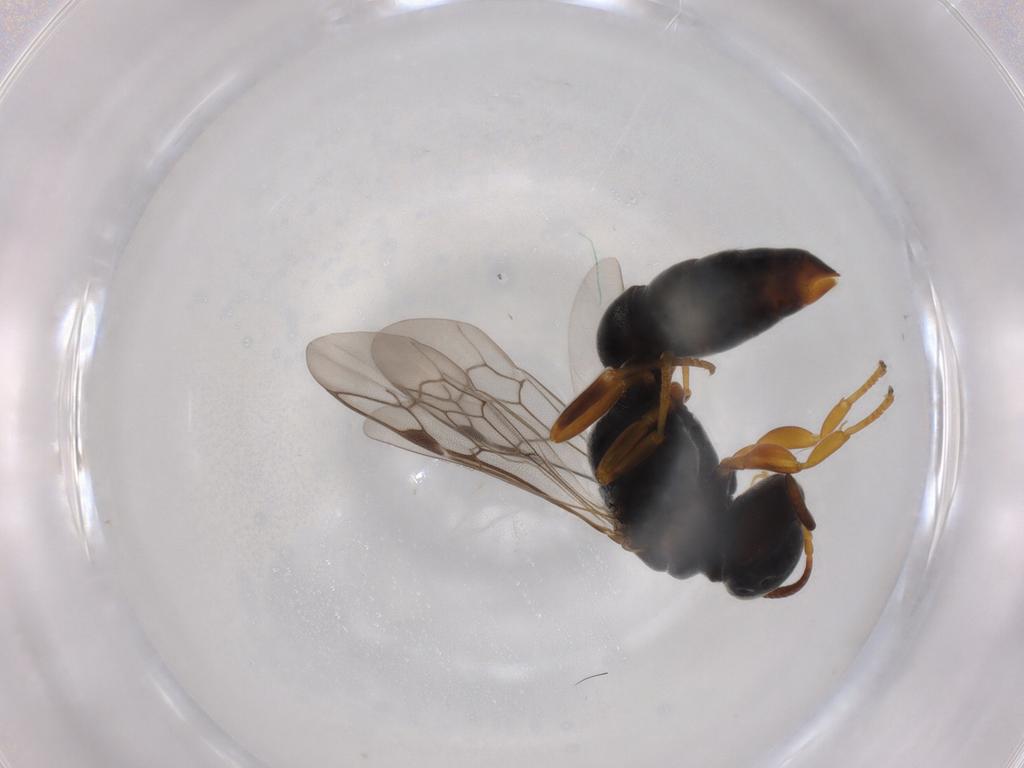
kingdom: Animalia
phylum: Arthropoda
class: Insecta
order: Hymenoptera
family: Crabronidae
